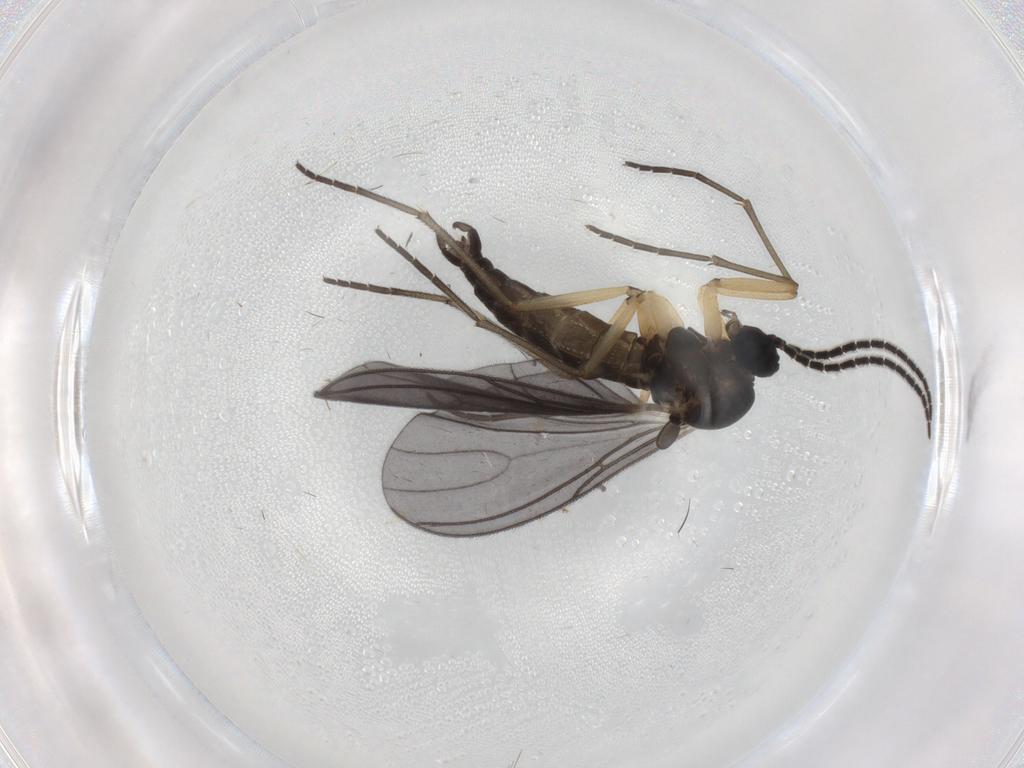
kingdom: Animalia
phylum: Arthropoda
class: Insecta
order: Diptera
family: Sciaridae
